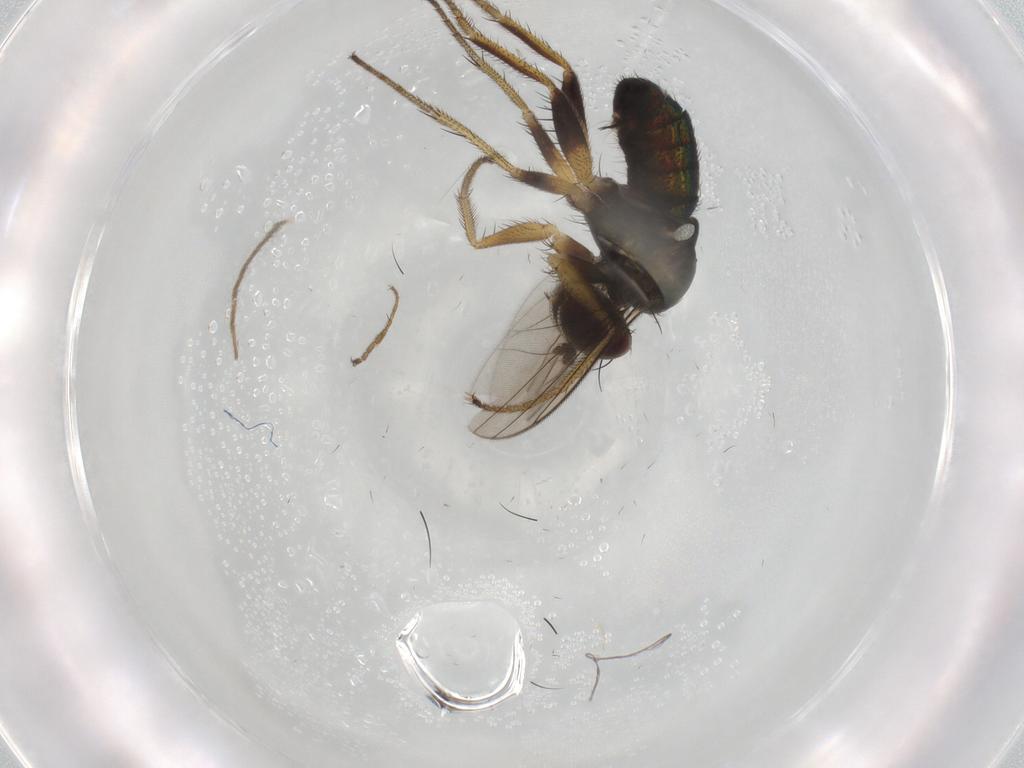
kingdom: Animalia
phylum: Arthropoda
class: Insecta
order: Diptera
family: Dolichopodidae
